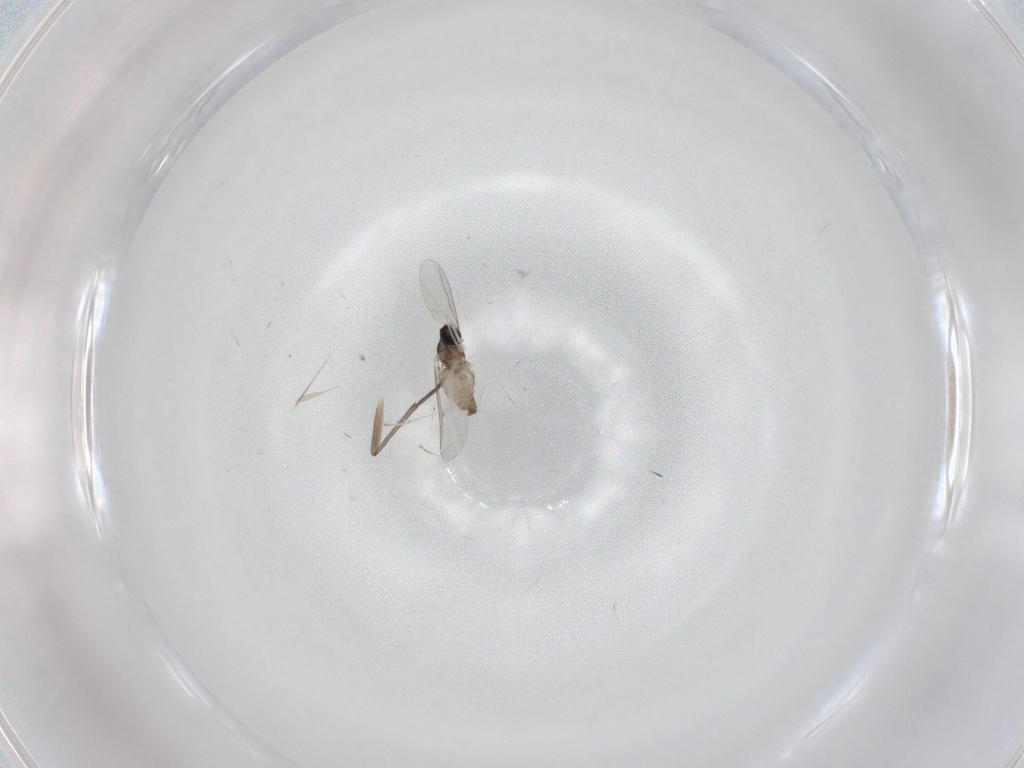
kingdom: Animalia
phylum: Arthropoda
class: Insecta
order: Diptera
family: Cecidomyiidae
